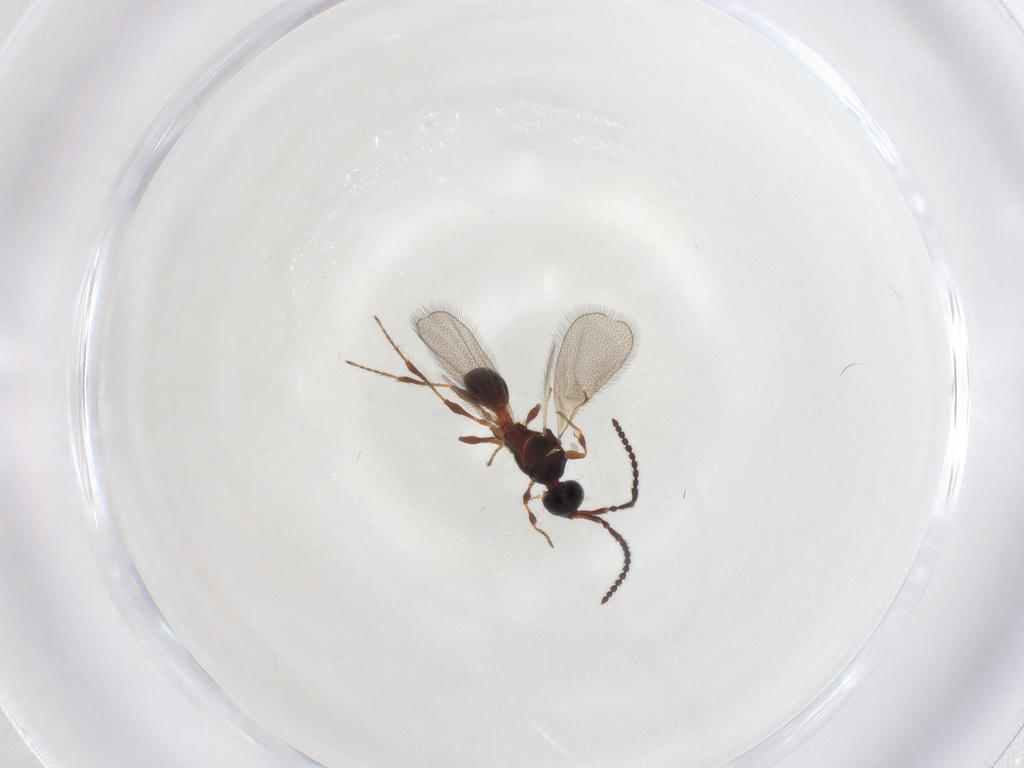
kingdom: Animalia
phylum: Arthropoda
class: Insecta
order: Hymenoptera
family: Diapriidae
